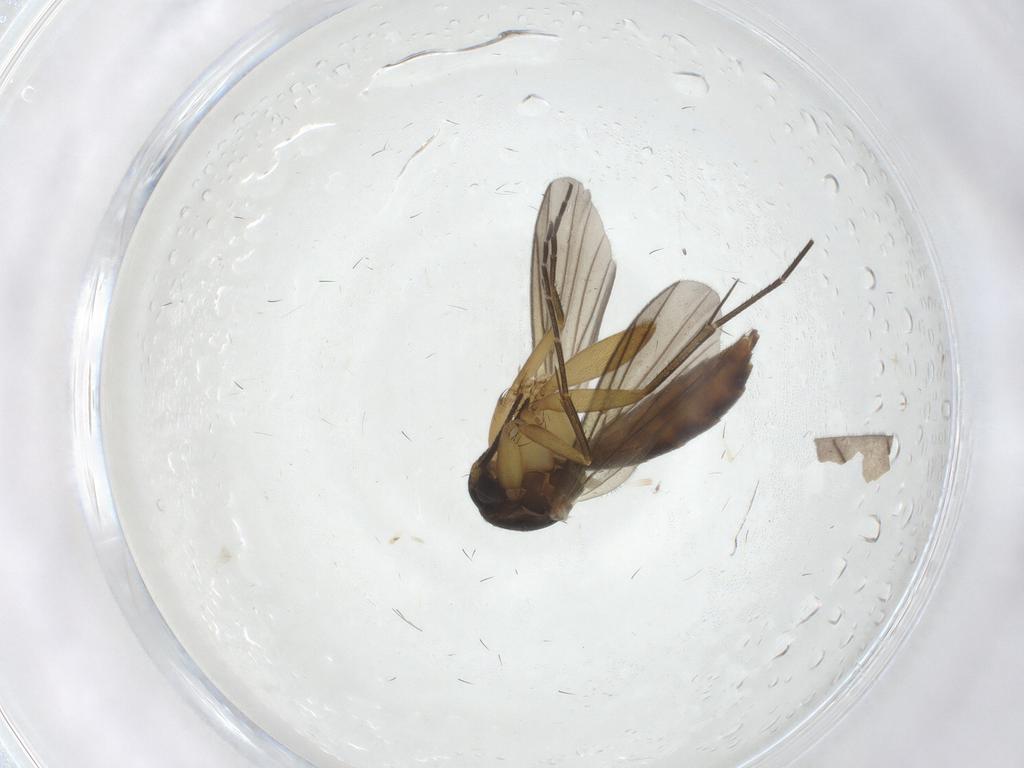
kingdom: Animalia
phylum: Arthropoda
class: Insecta
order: Diptera
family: Mycetophilidae
